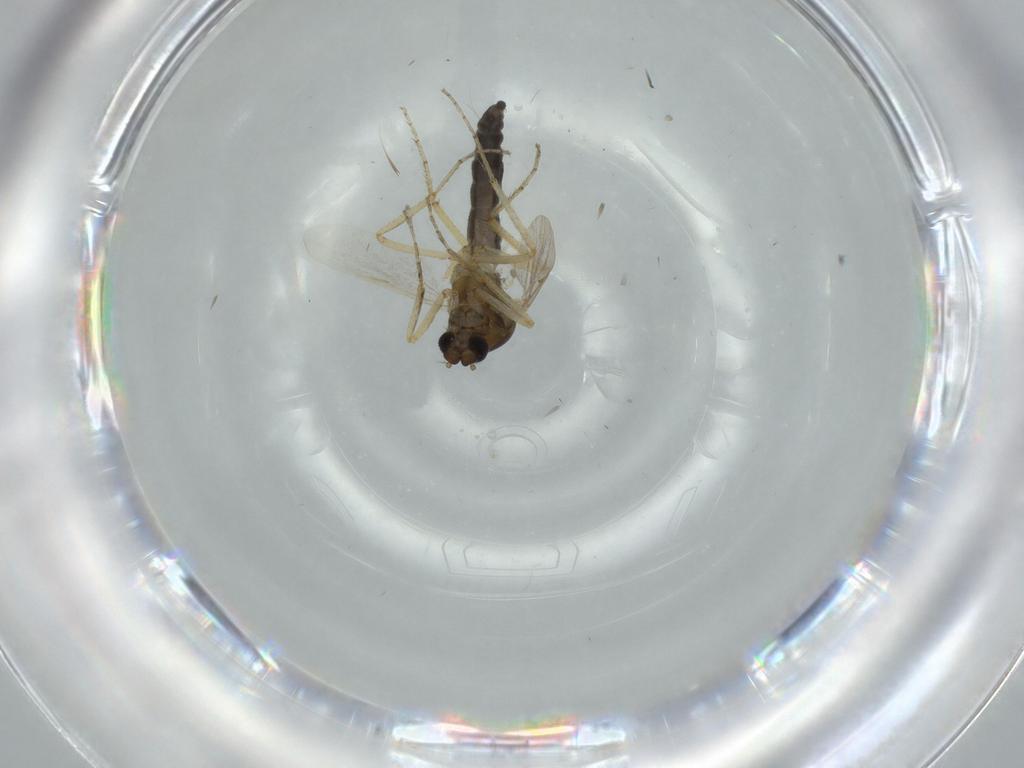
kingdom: Animalia
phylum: Arthropoda
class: Insecta
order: Diptera
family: Ceratopogonidae
